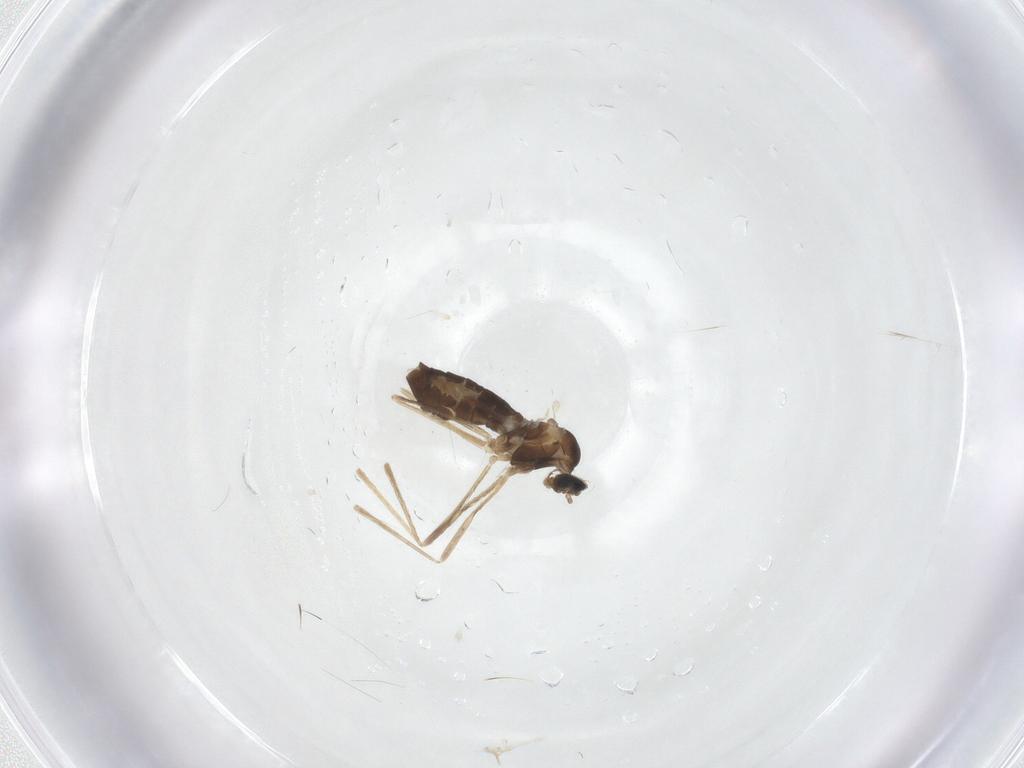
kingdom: Animalia
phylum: Arthropoda
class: Insecta
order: Diptera
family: Cecidomyiidae
